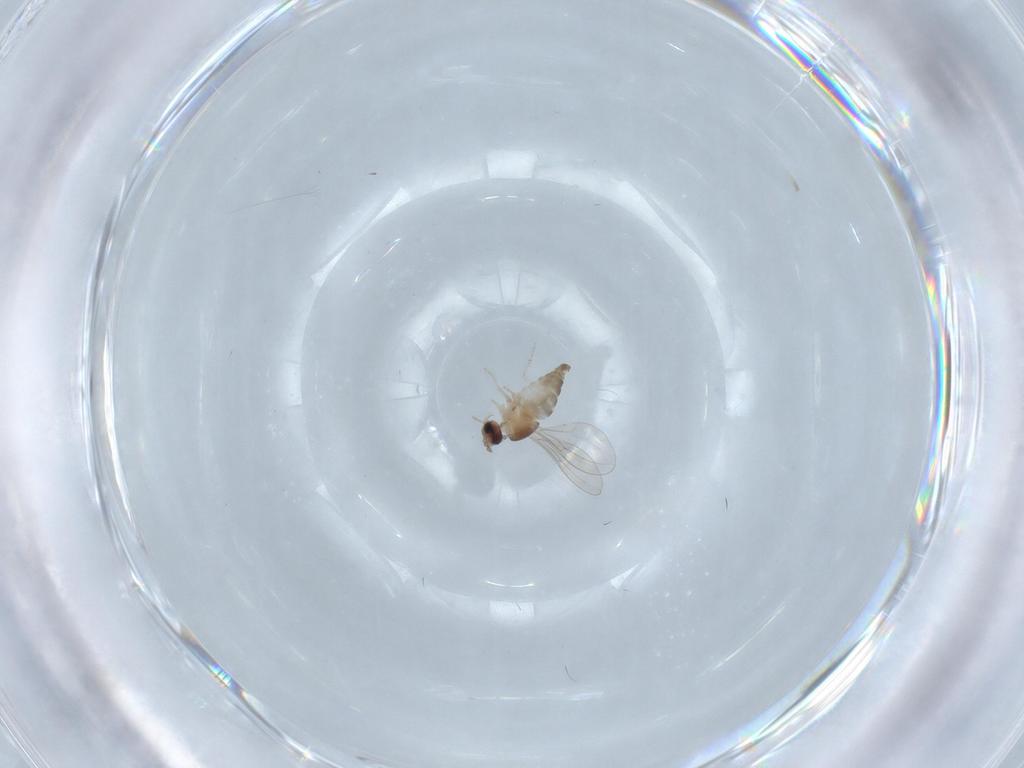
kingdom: Animalia
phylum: Arthropoda
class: Insecta
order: Diptera
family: Cecidomyiidae
